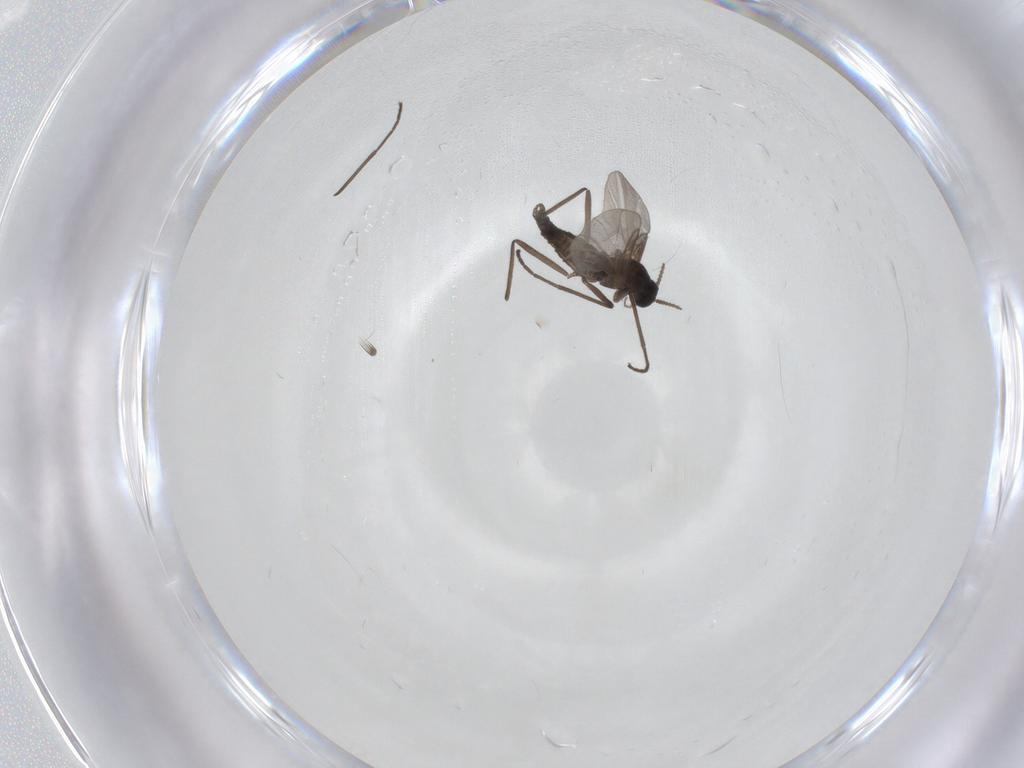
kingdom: Animalia
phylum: Arthropoda
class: Insecta
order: Diptera
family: Cecidomyiidae
